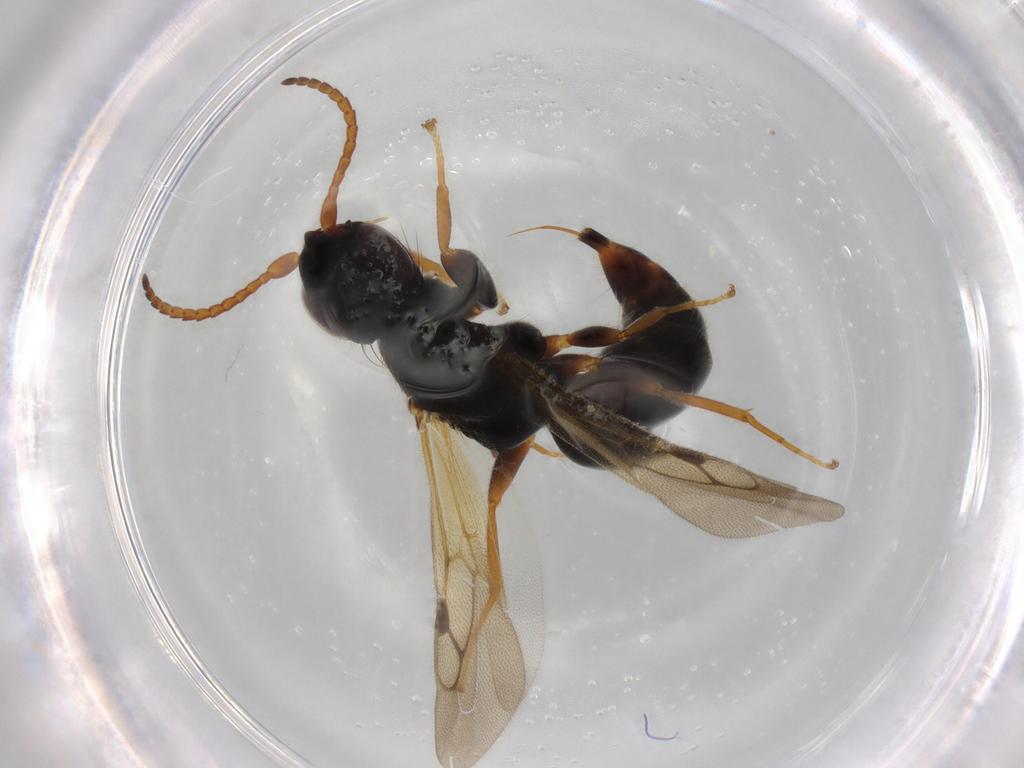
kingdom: Animalia
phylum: Arthropoda
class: Insecta
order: Hymenoptera
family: Bethylidae
